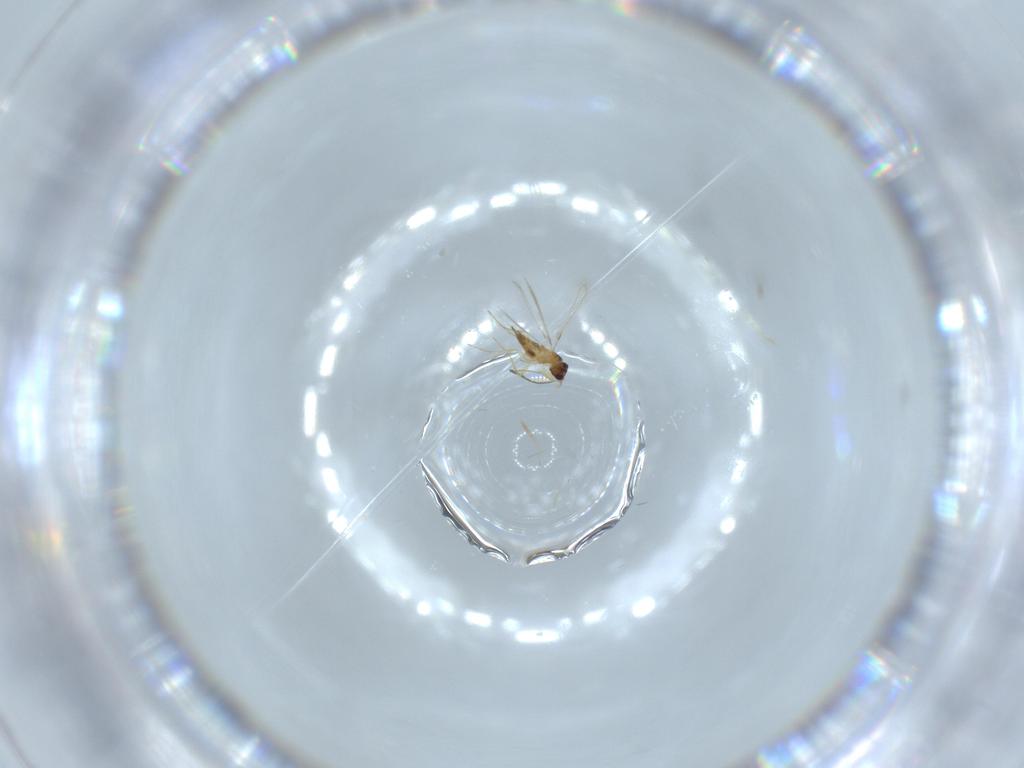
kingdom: Animalia
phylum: Arthropoda
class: Insecta
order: Hymenoptera
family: Mymaridae
